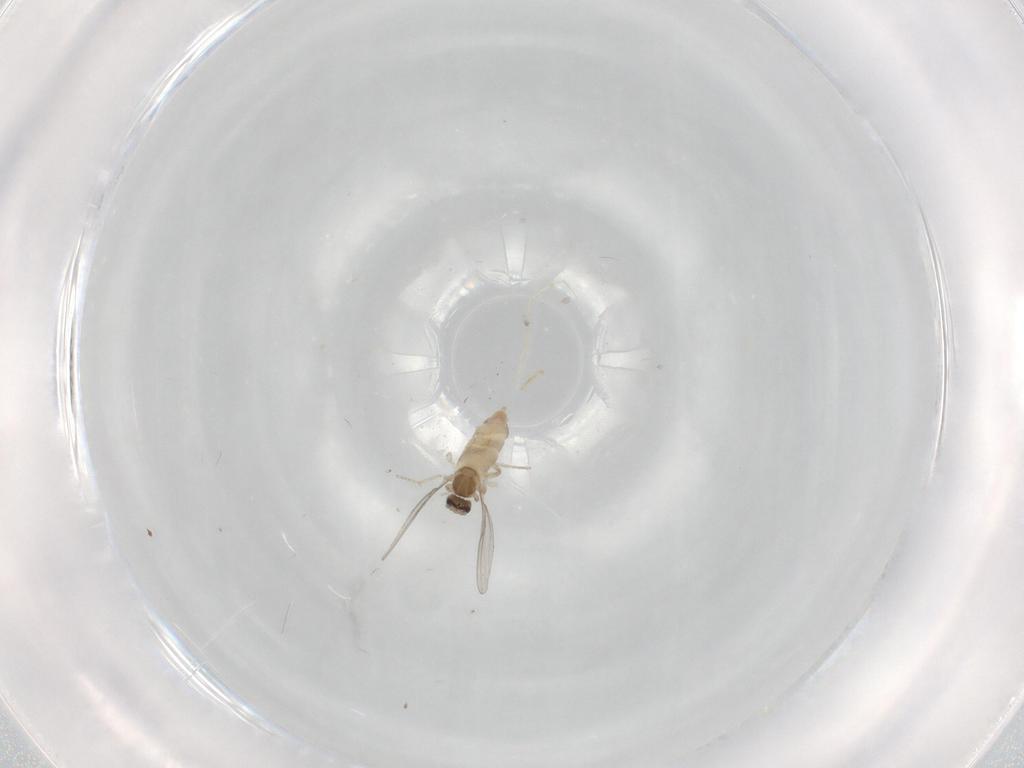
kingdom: Animalia
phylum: Arthropoda
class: Insecta
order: Diptera
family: Cecidomyiidae
